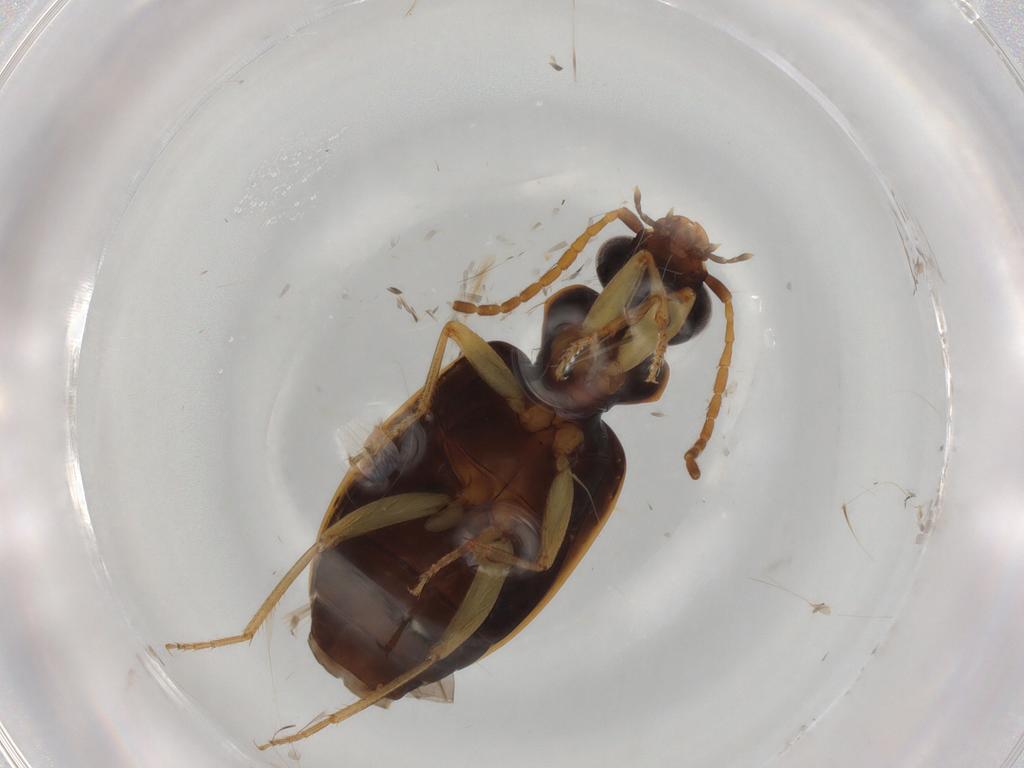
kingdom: Animalia
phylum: Arthropoda
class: Insecta
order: Coleoptera
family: Carabidae
